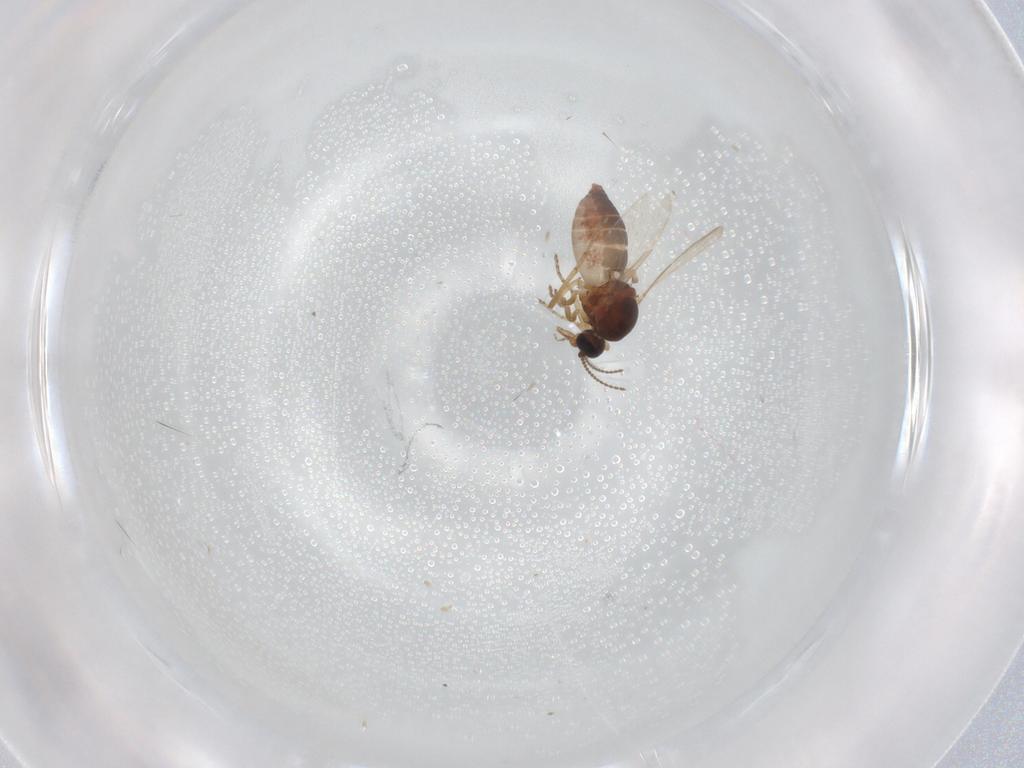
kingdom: Animalia
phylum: Arthropoda
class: Insecta
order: Diptera
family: Ceratopogonidae
